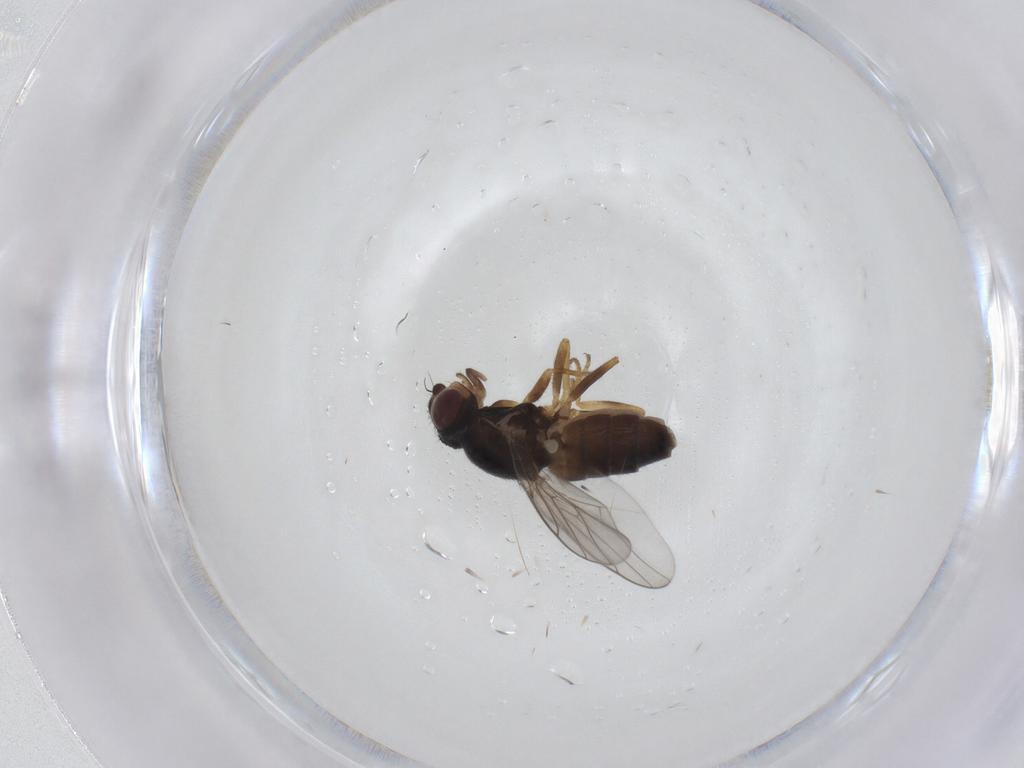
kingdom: Animalia
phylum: Arthropoda
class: Insecta
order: Diptera
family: Chloropidae
